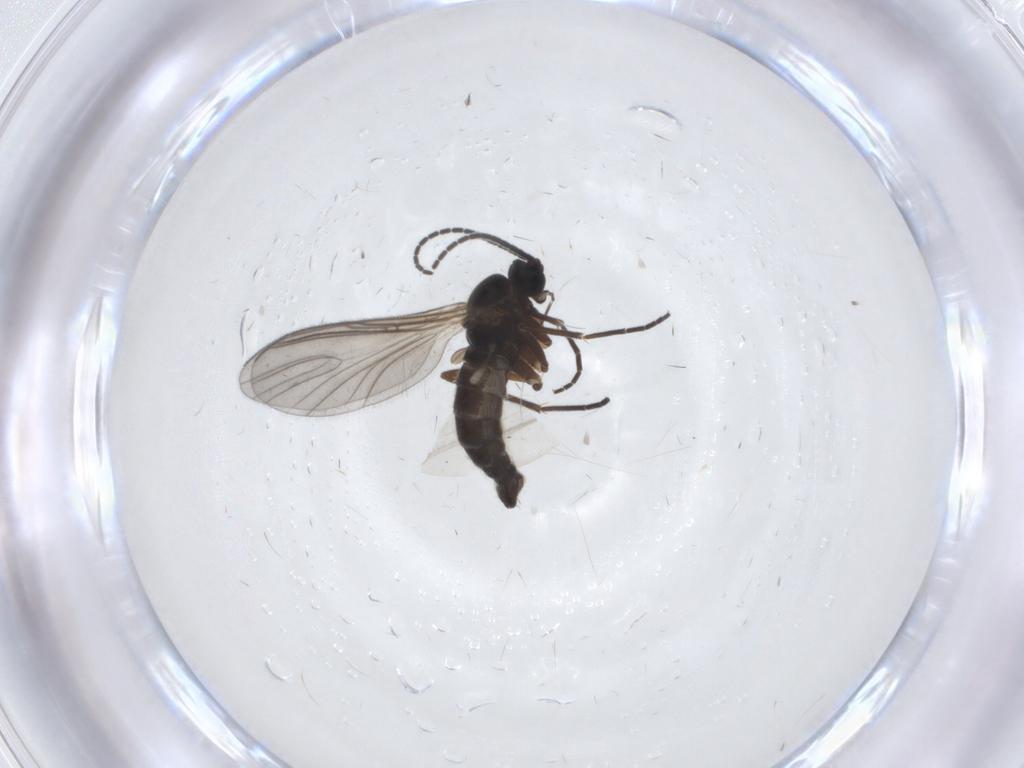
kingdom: Animalia
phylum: Arthropoda
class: Insecta
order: Diptera
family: Sciaridae
